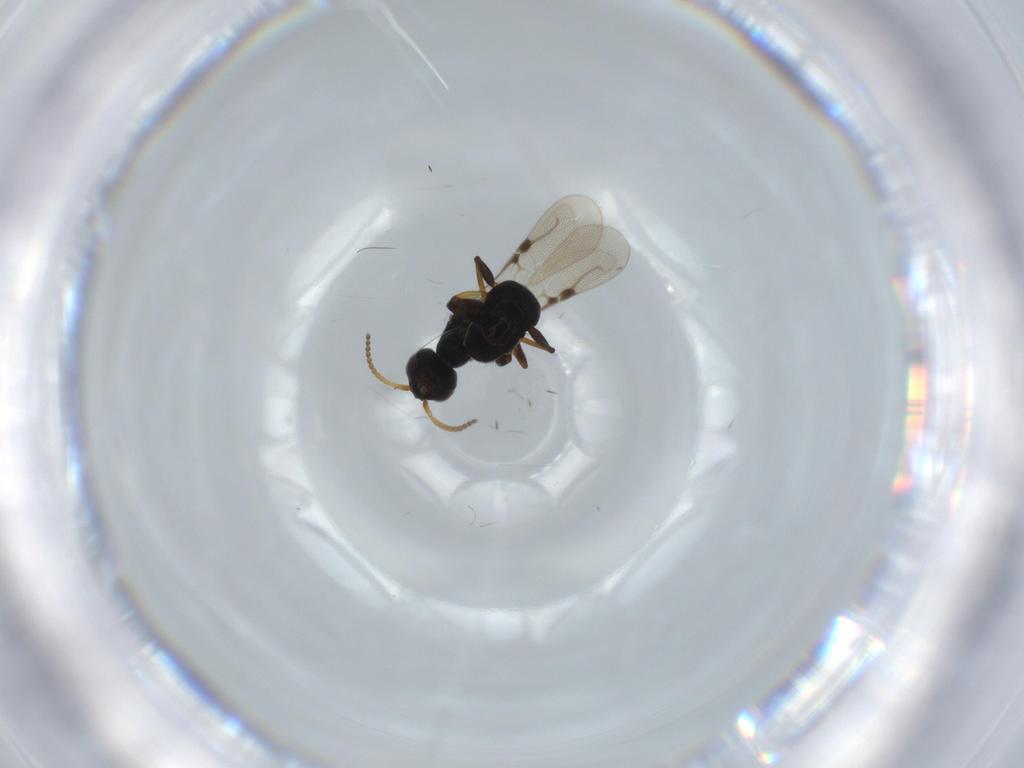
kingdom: Animalia
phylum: Arthropoda
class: Insecta
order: Hymenoptera
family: Bethylidae
